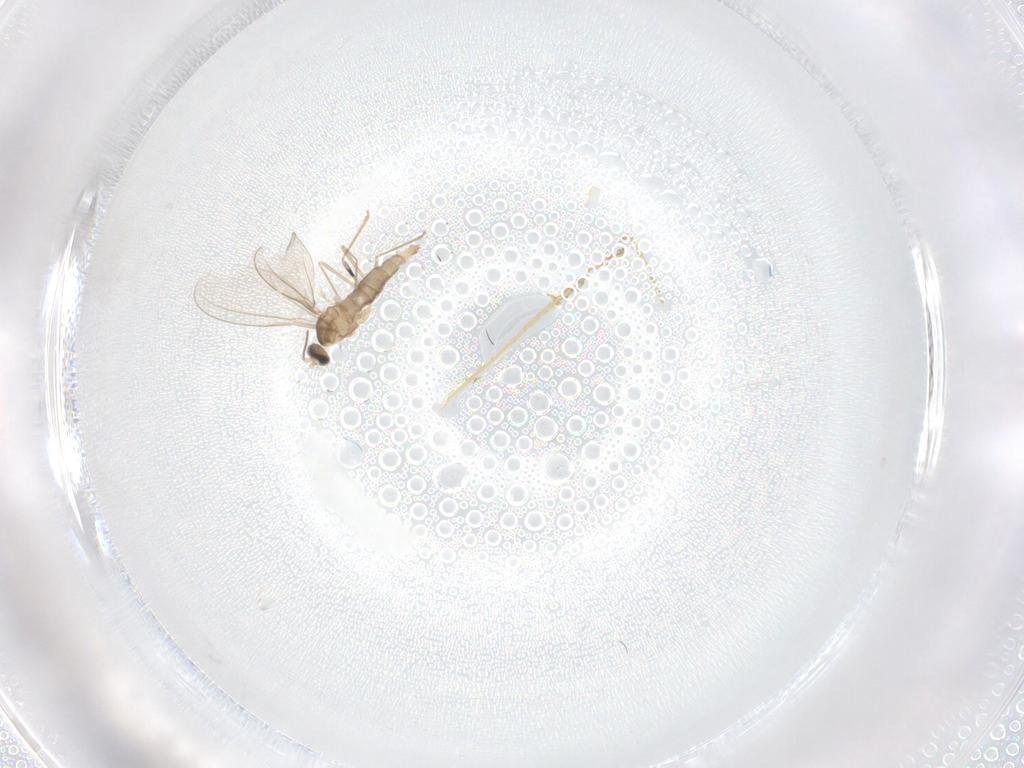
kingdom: Animalia
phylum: Arthropoda
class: Insecta
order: Diptera
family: Cecidomyiidae
